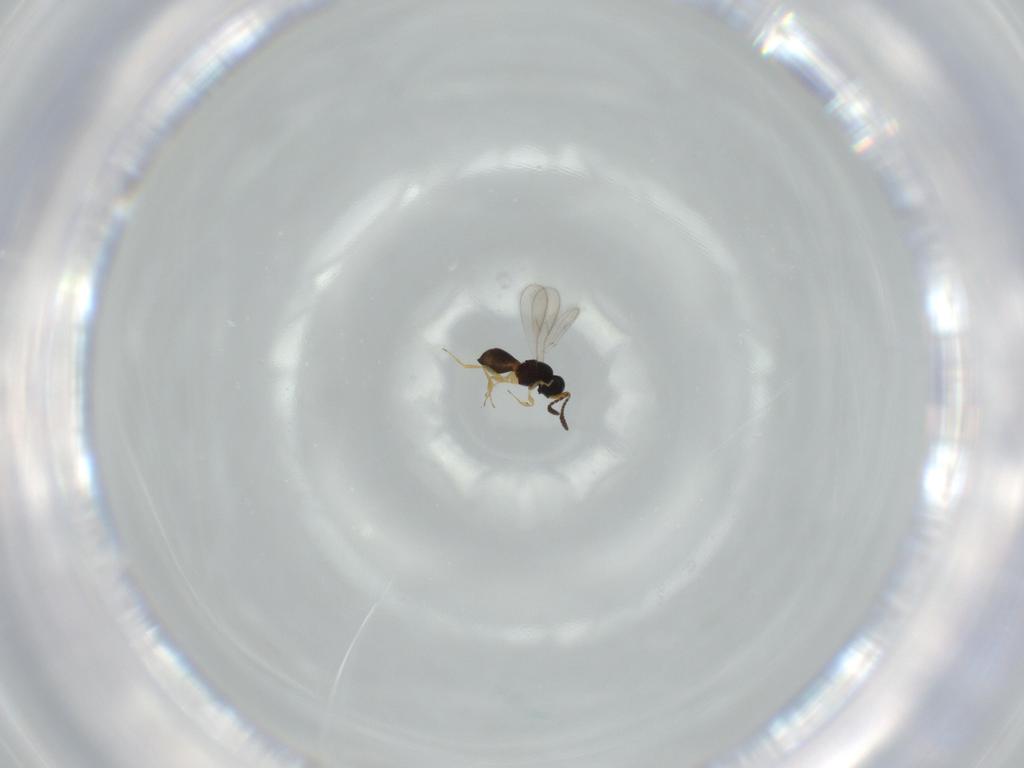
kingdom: Animalia
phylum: Arthropoda
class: Insecta
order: Hymenoptera
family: Scelionidae
